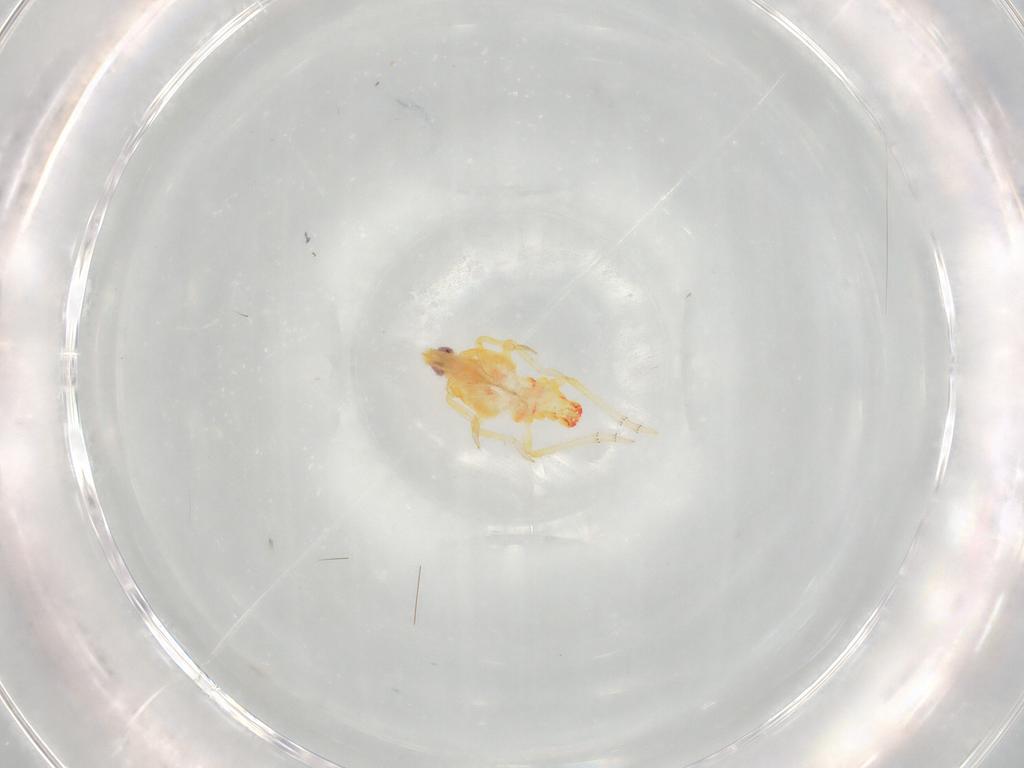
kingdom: Animalia
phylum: Arthropoda
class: Insecta
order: Hemiptera
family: Tropiduchidae
